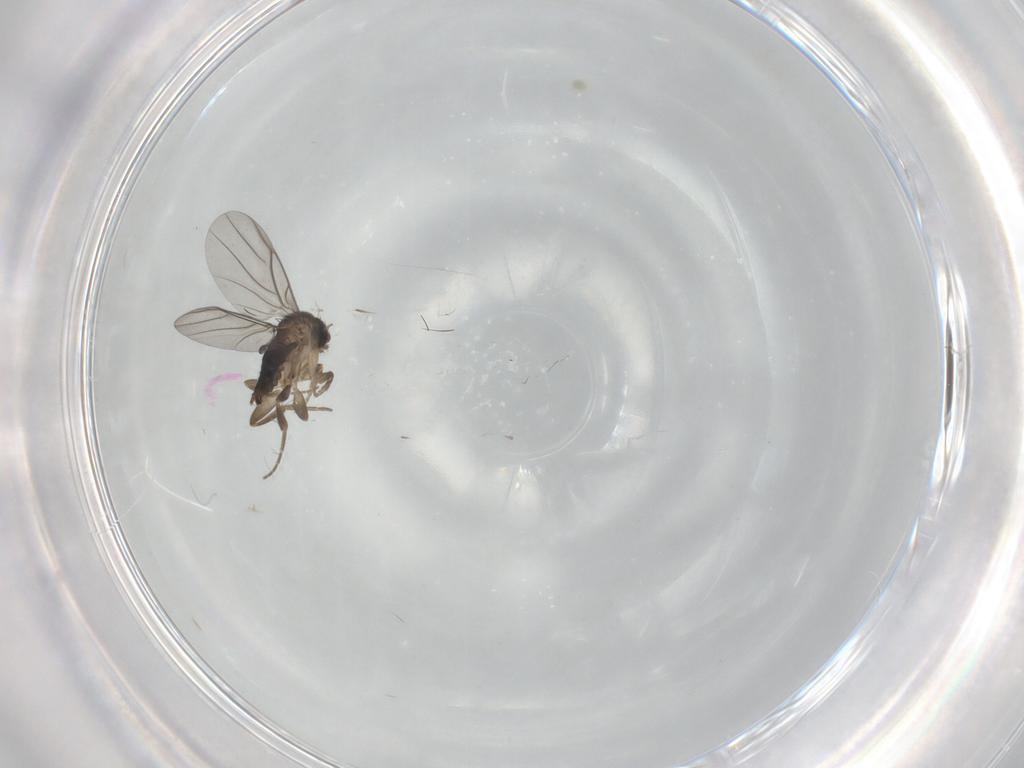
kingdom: Animalia
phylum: Arthropoda
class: Insecta
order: Diptera
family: Phoridae
